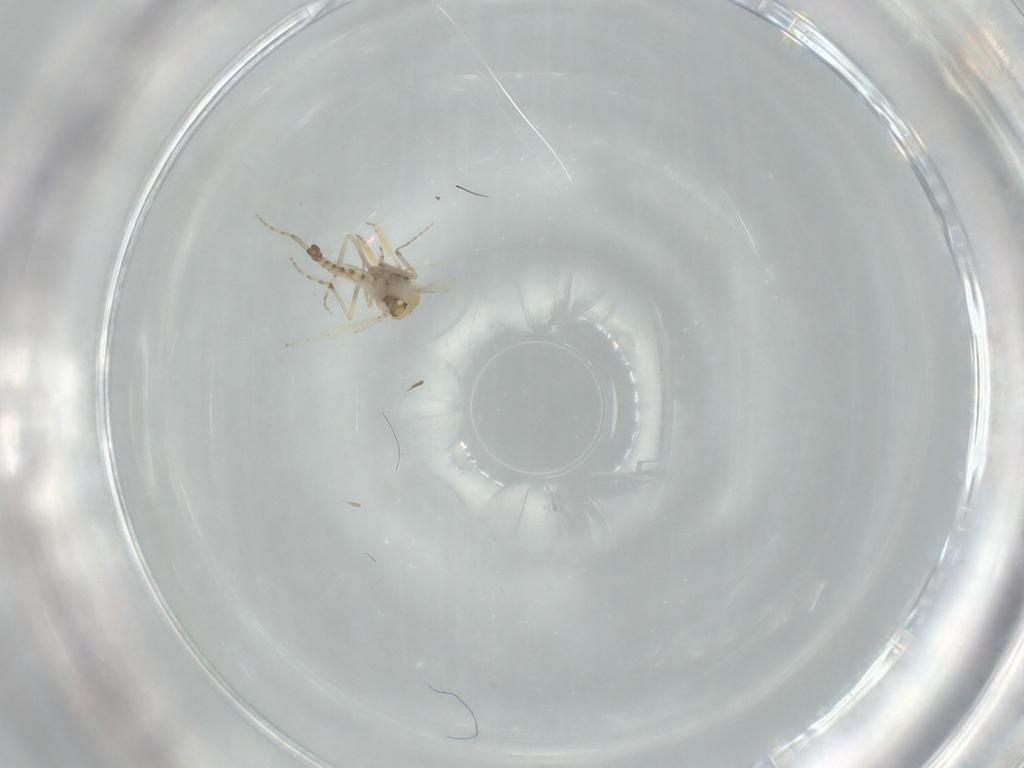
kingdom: Animalia
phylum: Arthropoda
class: Insecta
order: Diptera
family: Ceratopogonidae
